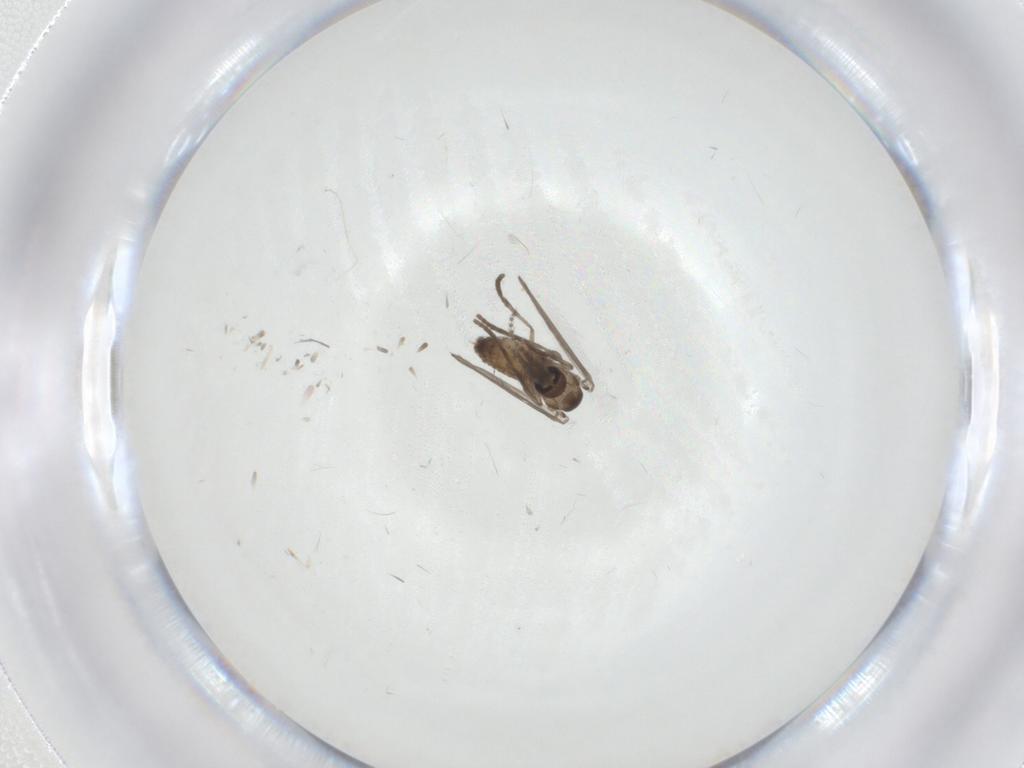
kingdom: Animalia
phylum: Arthropoda
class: Insecta
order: Diptera
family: Psychodidae
